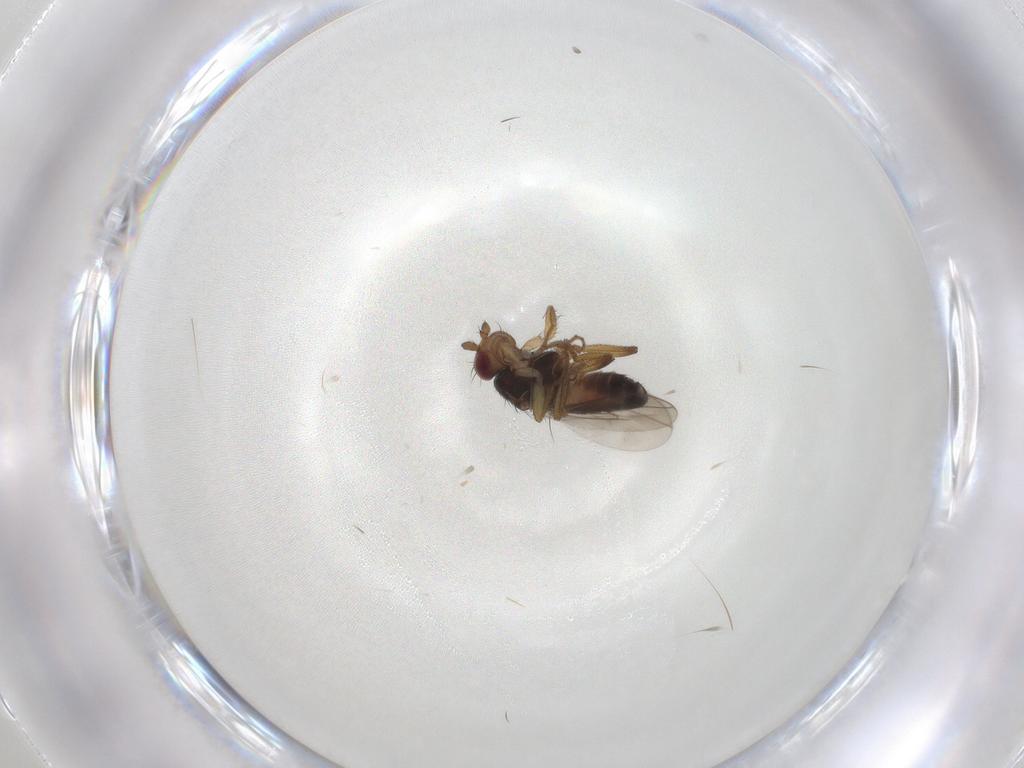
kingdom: Animalia
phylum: Arthropoda
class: Insecta
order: Diptera
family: Sphaeroceridae
